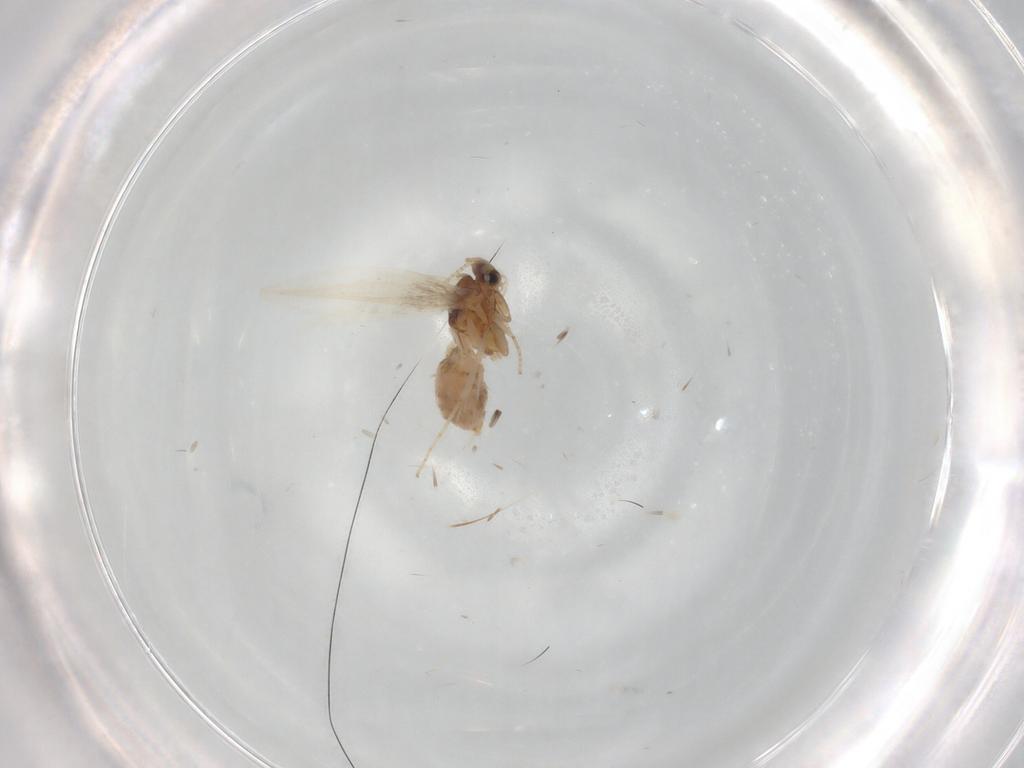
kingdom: Animalia
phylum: Arthropoda
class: Insecta
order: Lepidoptera
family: Nepticulidae
